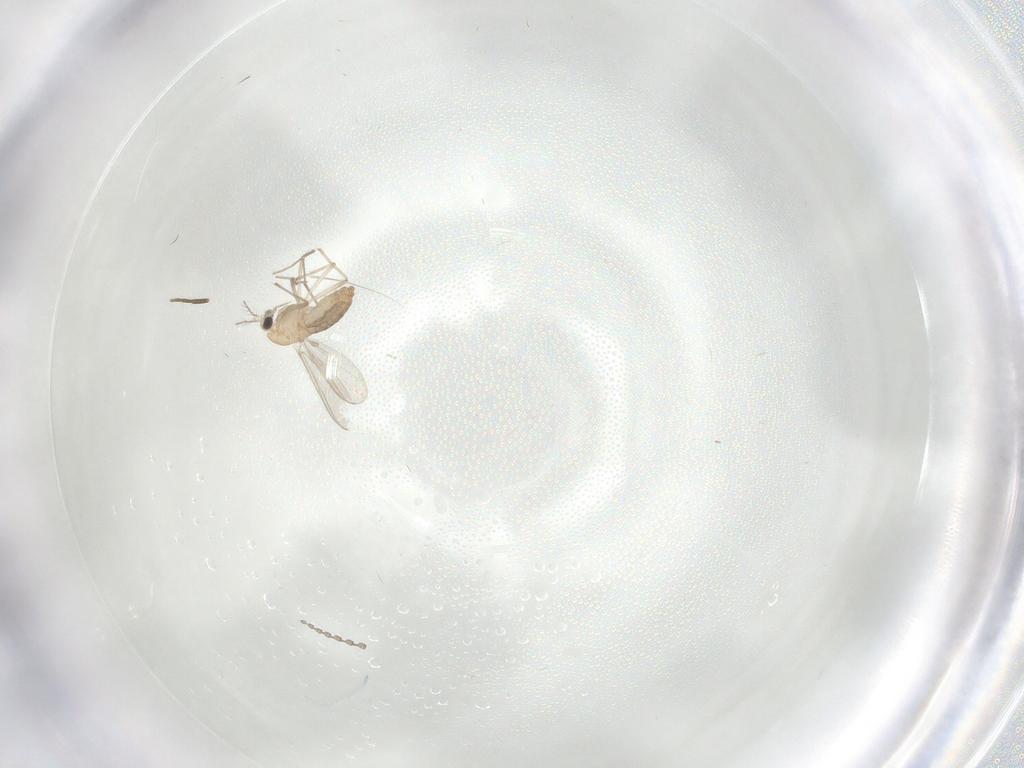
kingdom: Animalia
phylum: Arthropoda
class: Insecta
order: Diptera
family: Chironomidae
